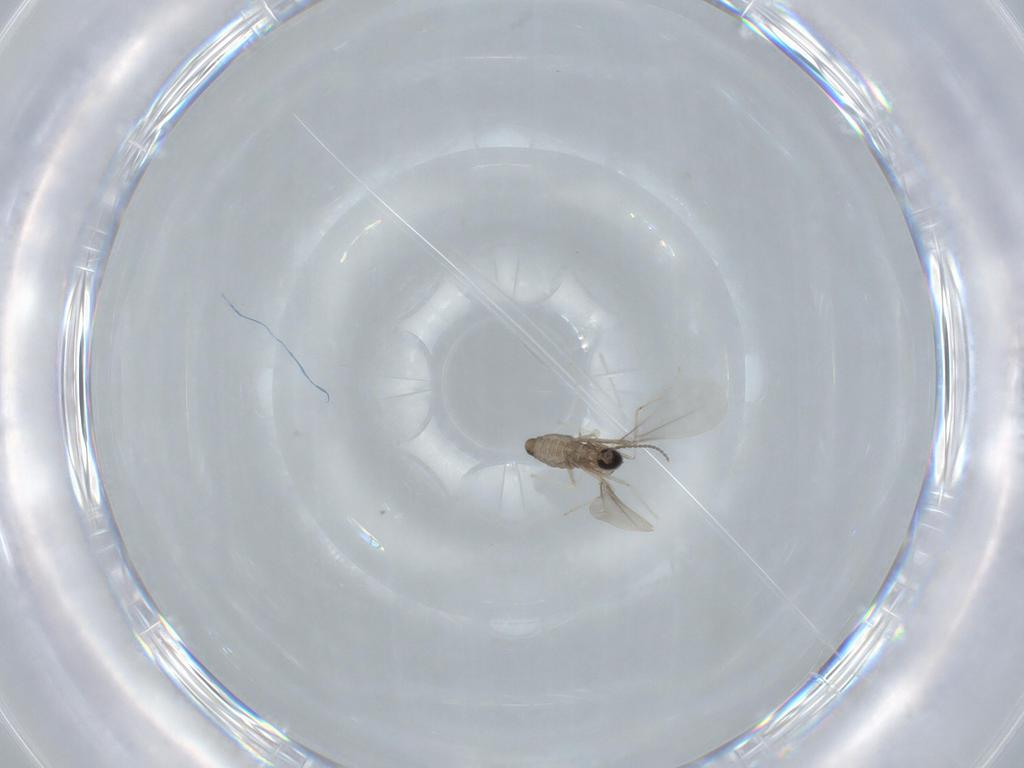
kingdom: Animalia
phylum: Arthropoda
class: Insecta
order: Diptera
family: Cecidomyiidae
